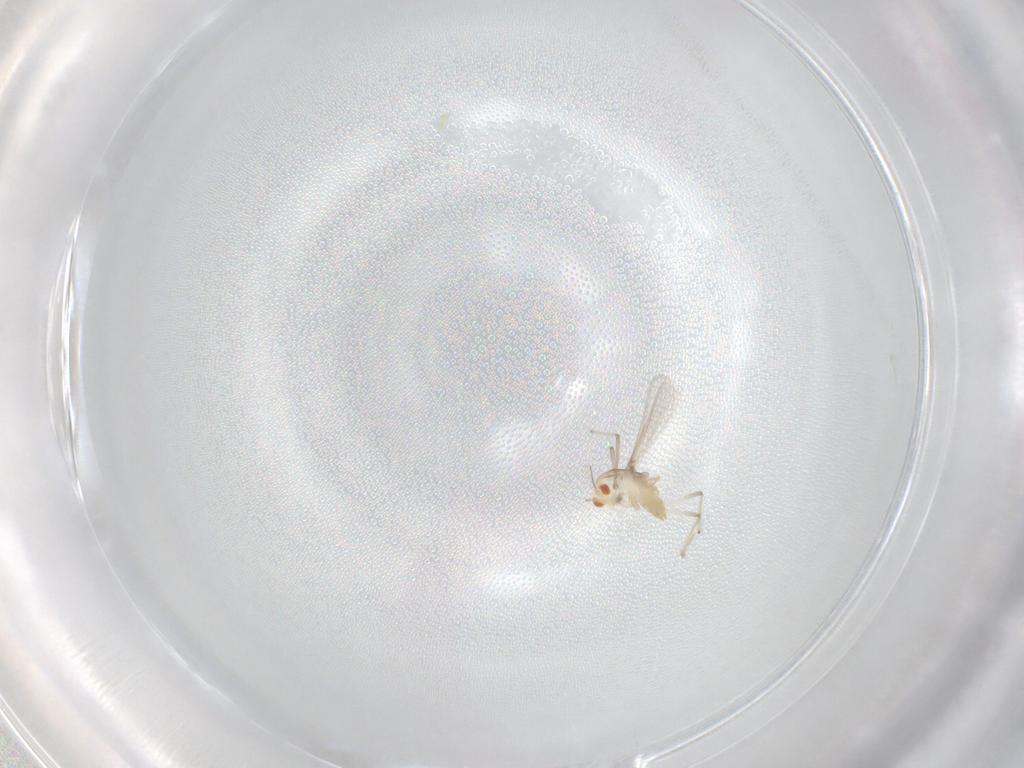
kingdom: Animalia
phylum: Arthropoda
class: Insecta
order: Diptera
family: Chironomidae
